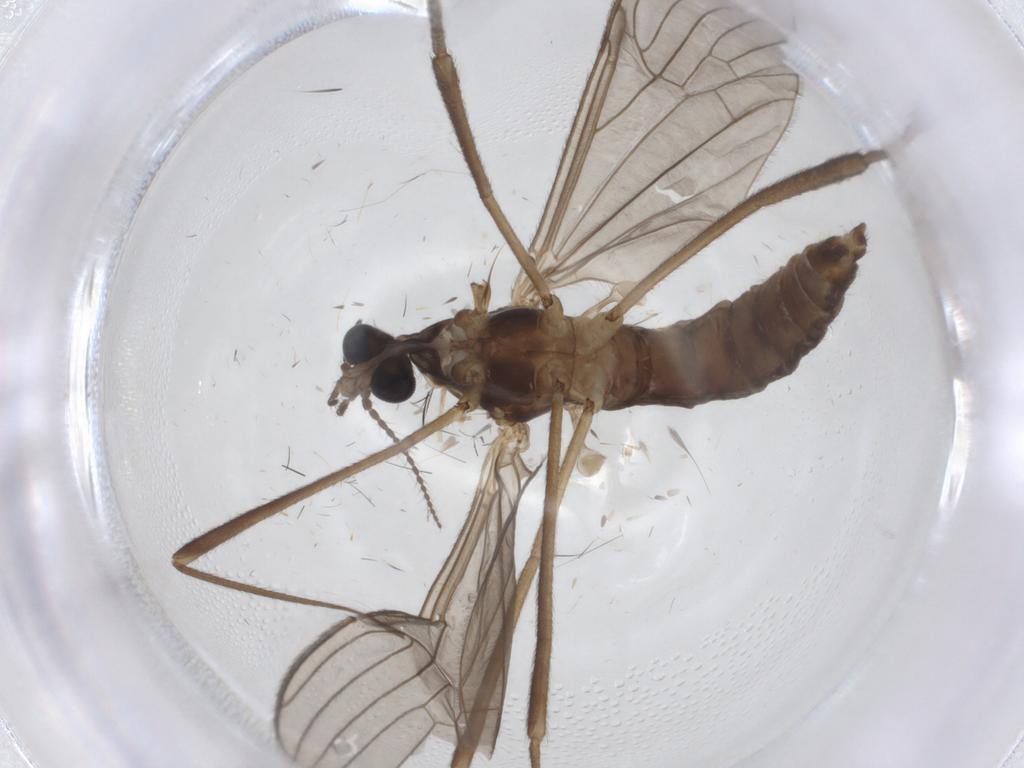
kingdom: Animalia
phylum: Arthropoda
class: Insecta
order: Diptera
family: Limoniidae
